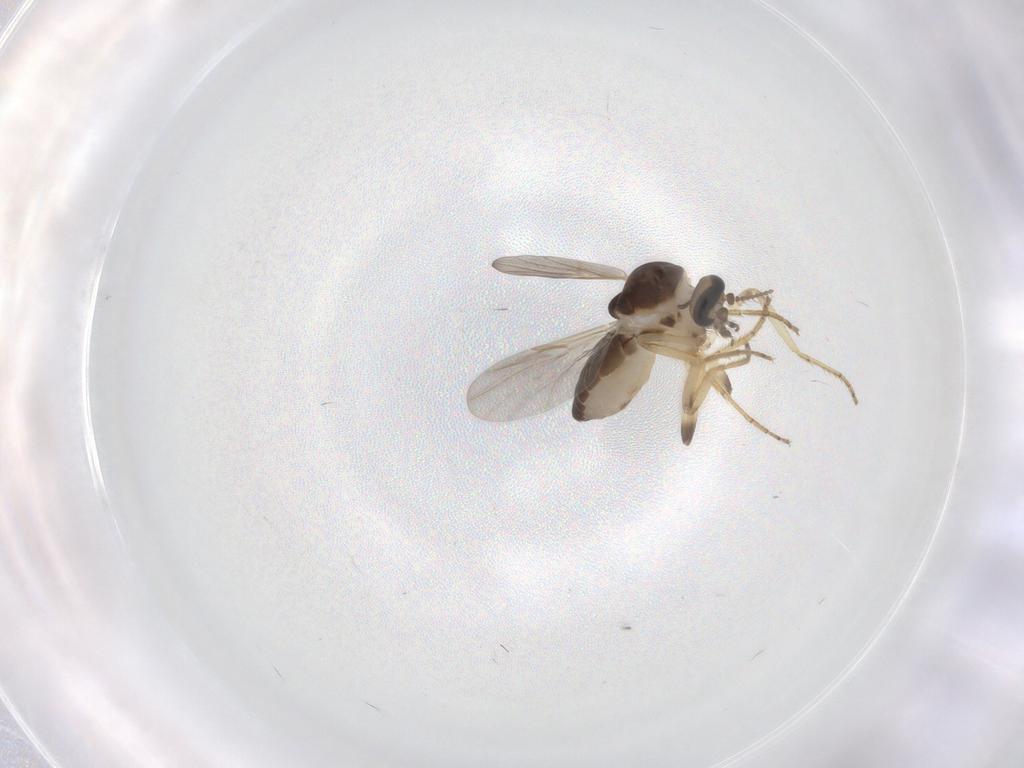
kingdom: Animalia
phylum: Arthropoda
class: Insecta
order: Diptera
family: Ceratopogonidae
